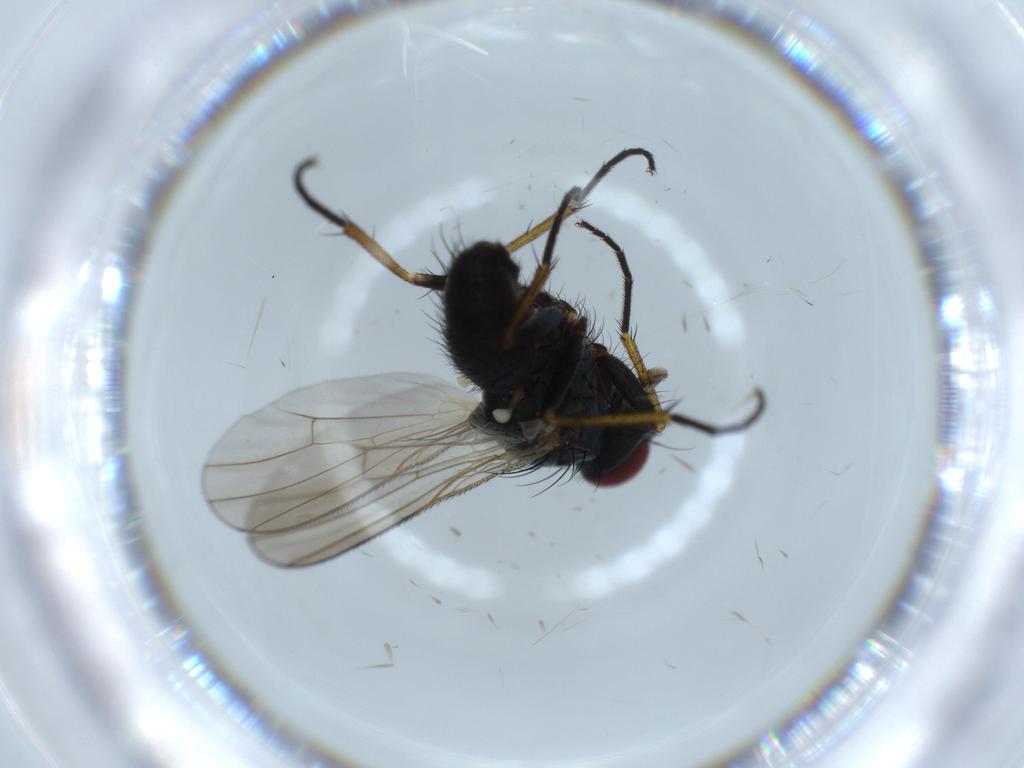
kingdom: Animalia
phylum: Arthropoda
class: Insecta
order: Diptera
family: Muscidae
